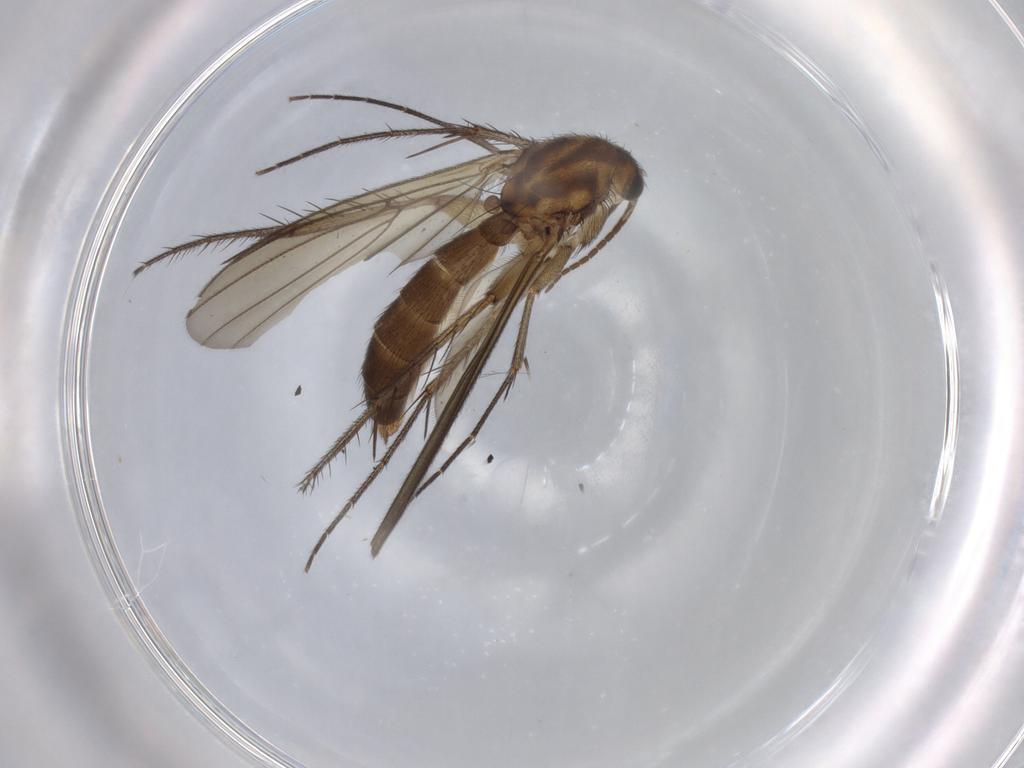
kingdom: Animalia
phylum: Arthropoda
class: Insecta
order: Diptera
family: Mycetophilidae
